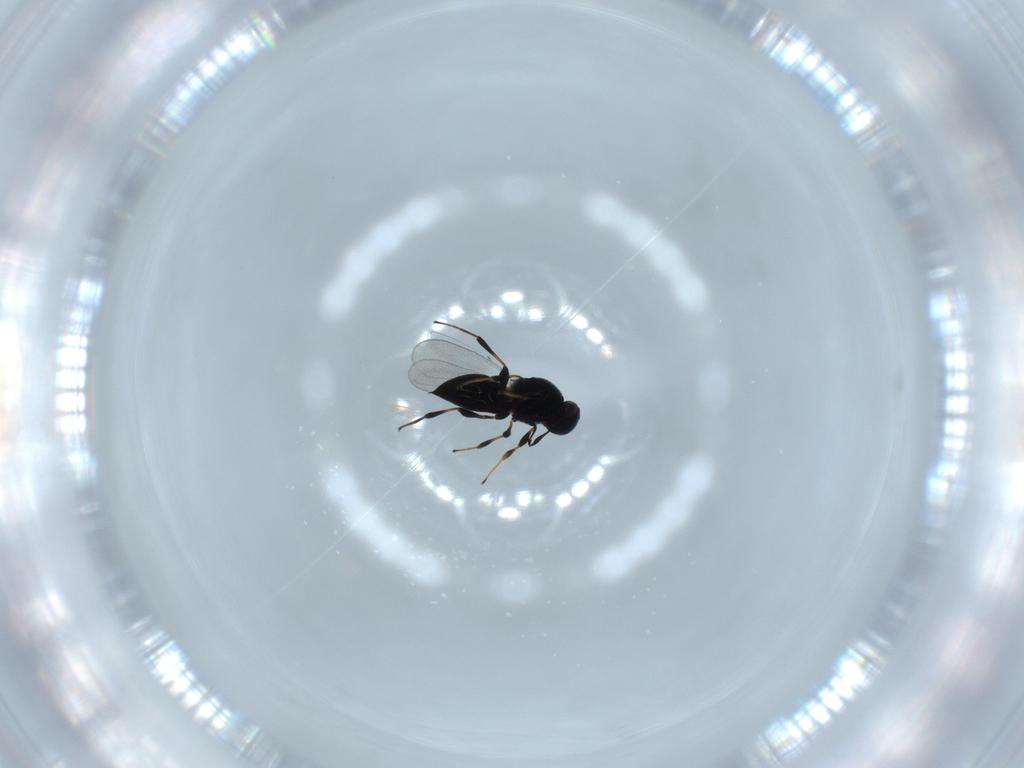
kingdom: Animalia
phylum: Arthropoda
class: Insecta
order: Hymenoptera
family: Platygastridae
